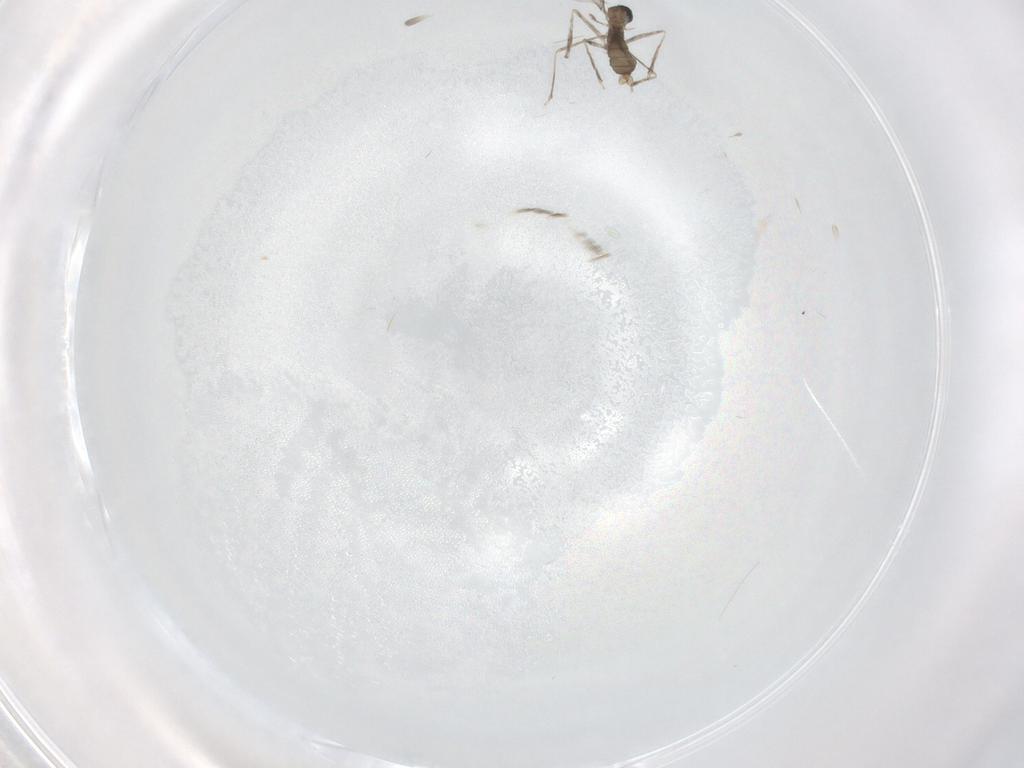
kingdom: Animalia
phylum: Arthropoda
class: Insecta
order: Diptera
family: Cecidomyiidae
